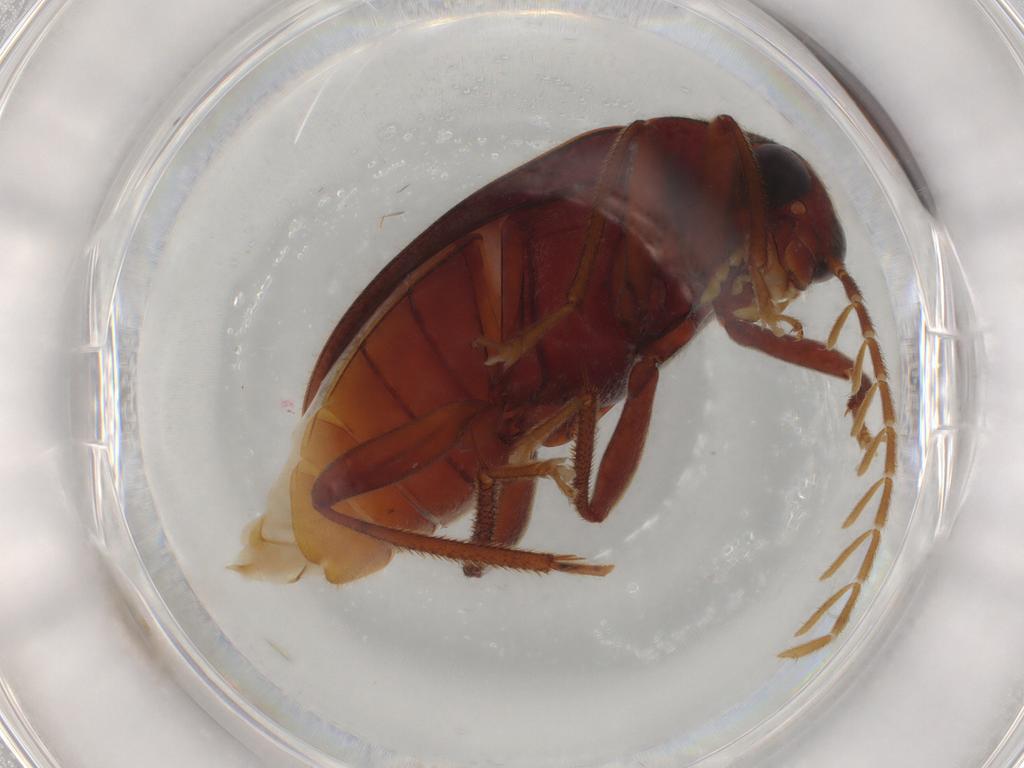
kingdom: Animalia
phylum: Arthropoda
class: Insecta
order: Coleoptera
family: Ptilodactylidae
